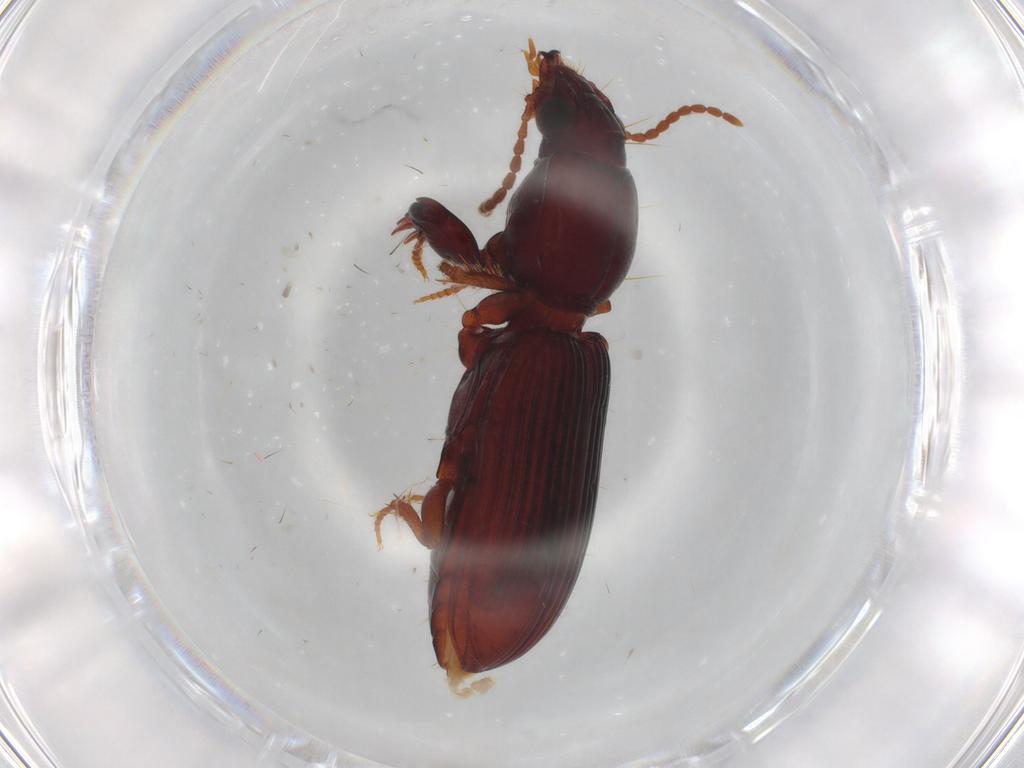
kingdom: Animalia
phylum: Arthropoda
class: Insecta
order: Coleoptera
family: Carabidae
